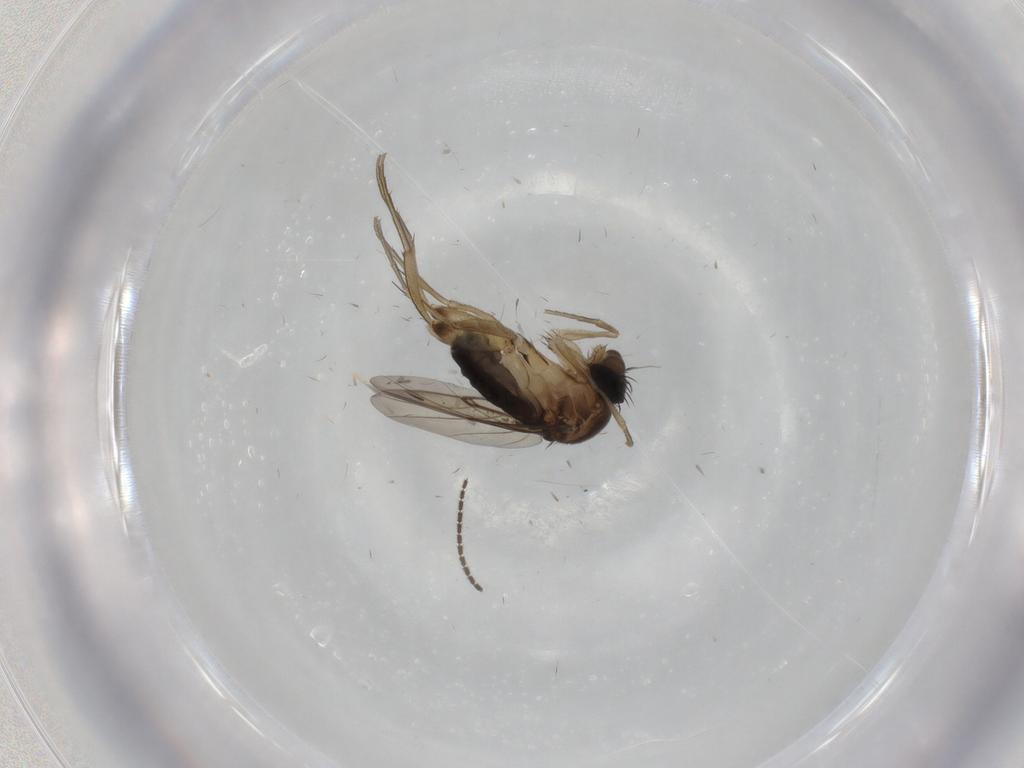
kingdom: Animalia
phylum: Arthropoda
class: Insecta
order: Diptera
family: Phoridae
